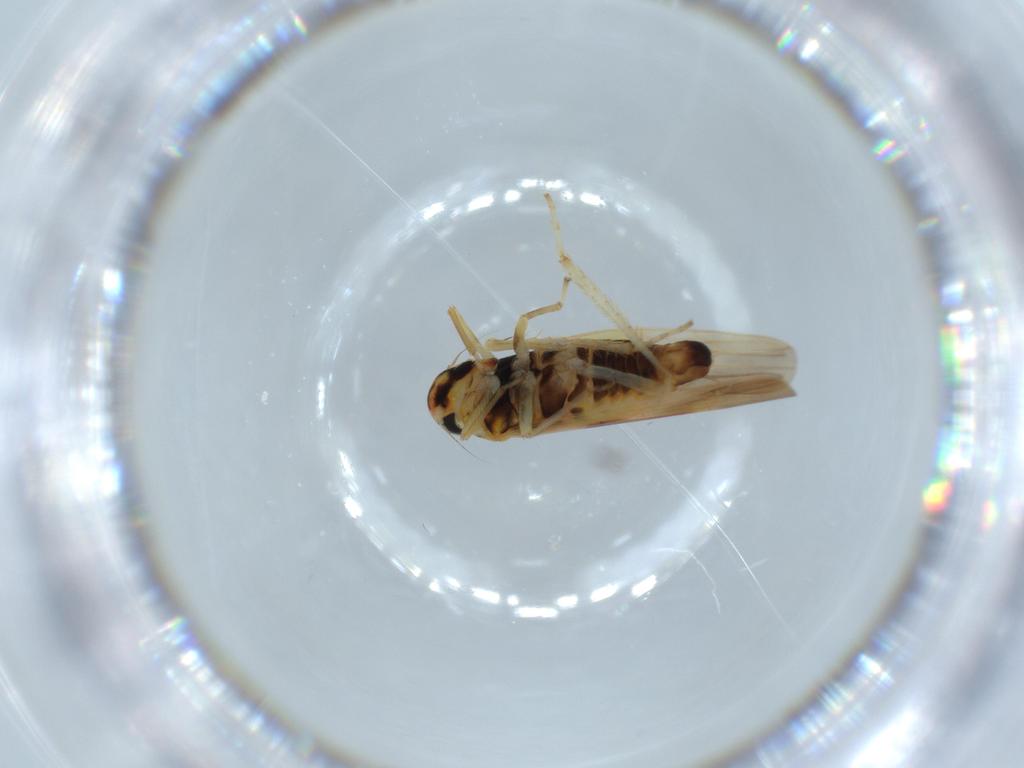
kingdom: Animalia
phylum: Arthropoda
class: Insecta
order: Hemiptera
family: Cicadellidae
